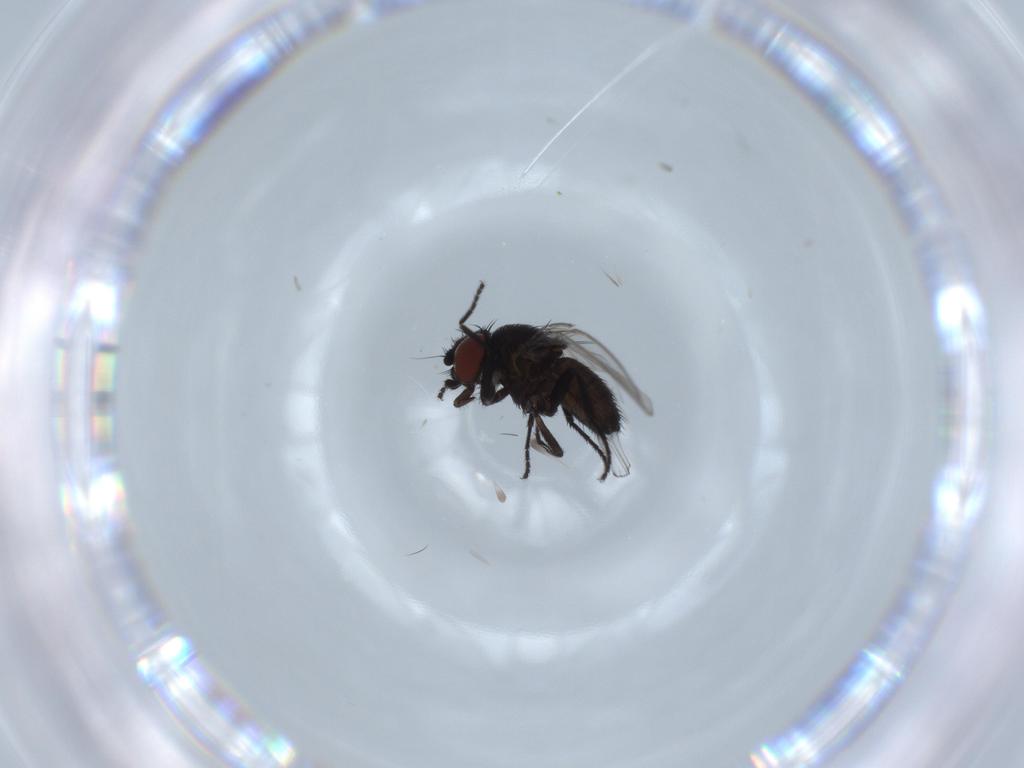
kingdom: Animalia
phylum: Arthropoda
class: Insecta
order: Diptera
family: Milichiidae
